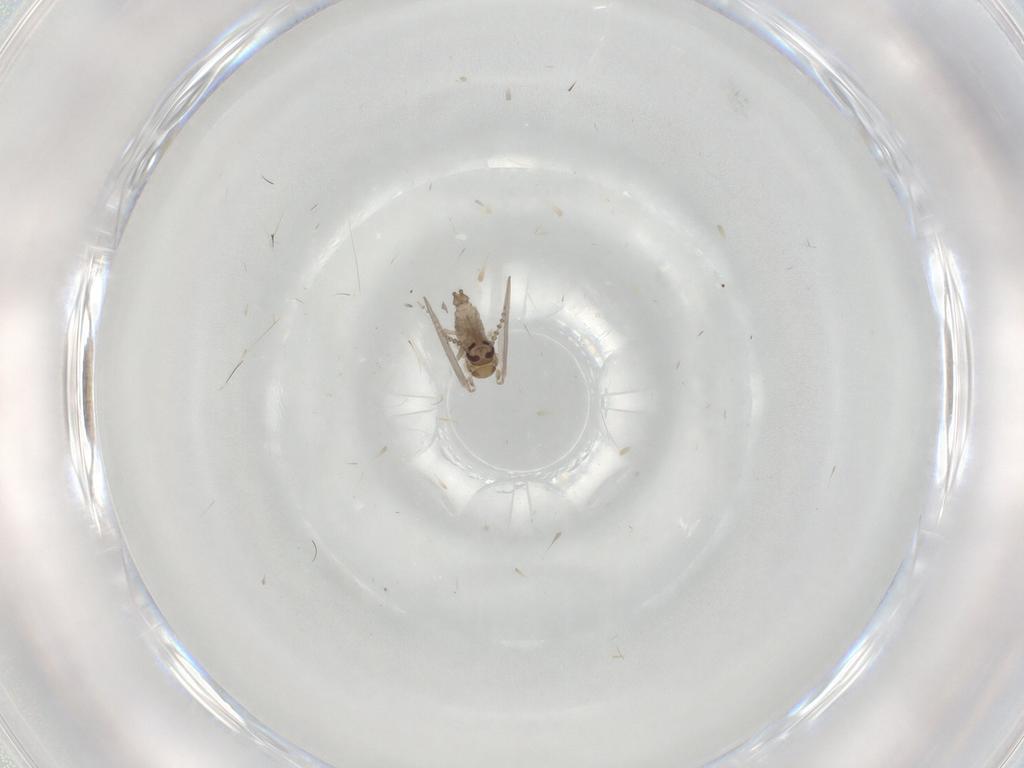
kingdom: Animalia
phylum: Arthropoda
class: Insecta
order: Diptera
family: Psychodidae
